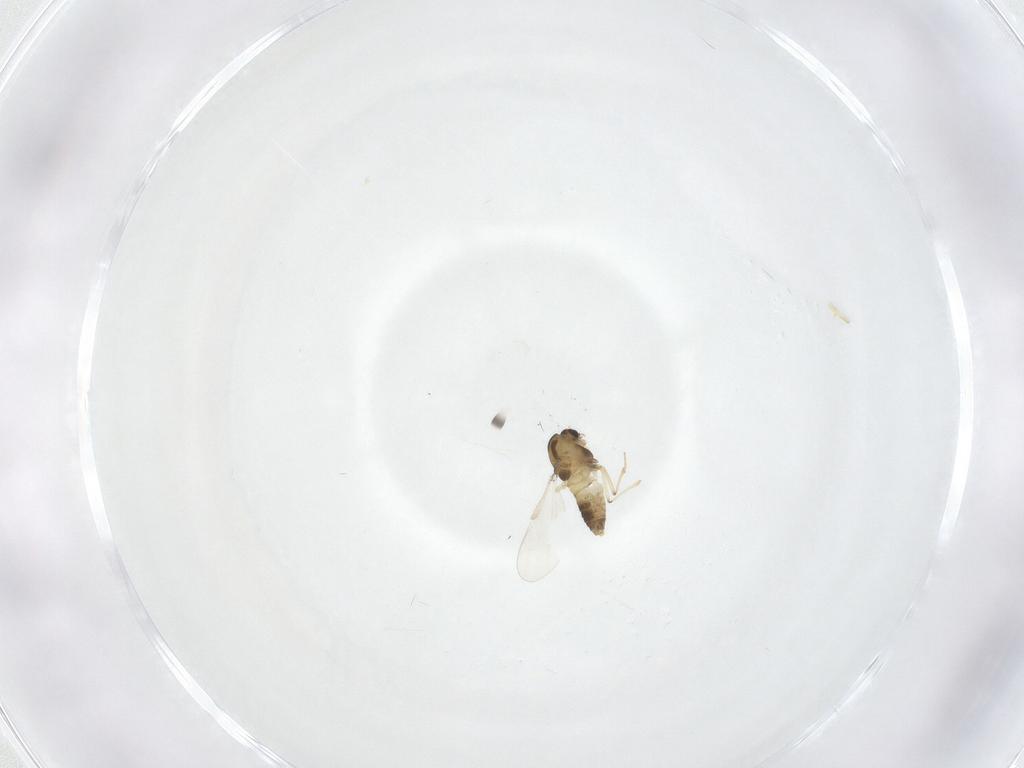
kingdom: Animalia
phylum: Arthropoda
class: Insecta
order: Diptera
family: Chironomidae
